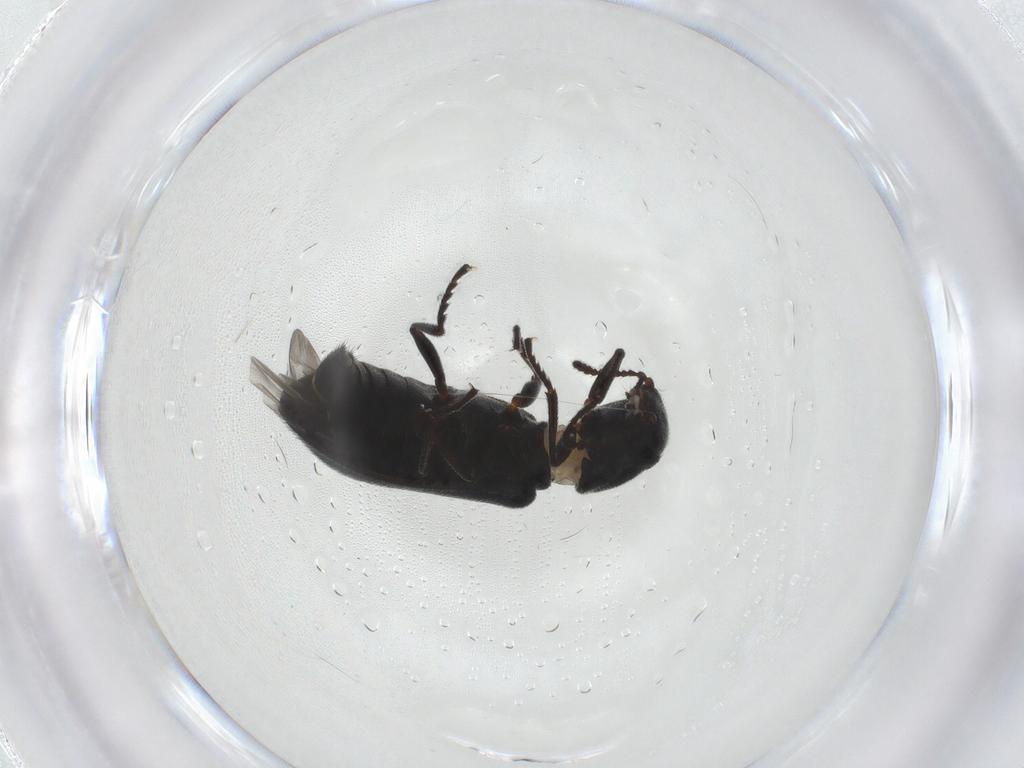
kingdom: Animalia
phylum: Arthropoda
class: Insecta
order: Coleoptera
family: Melyridae
